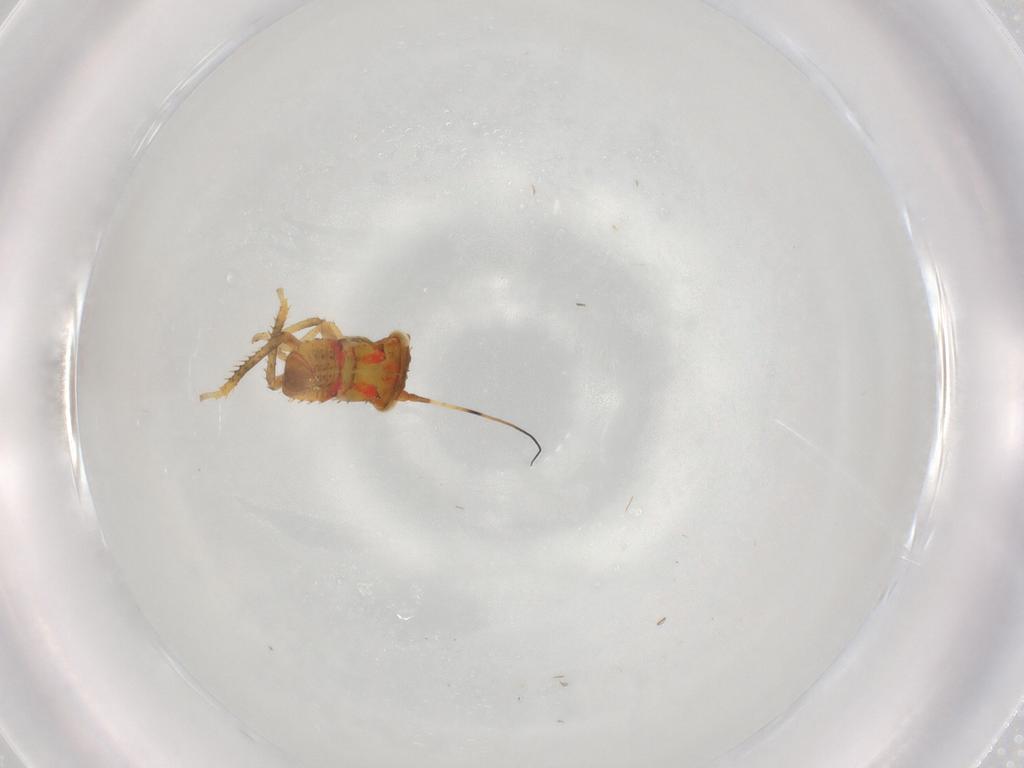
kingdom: Animalia
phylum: Arthropoda
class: Insecta
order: Hemiptera
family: Cicadellidae
